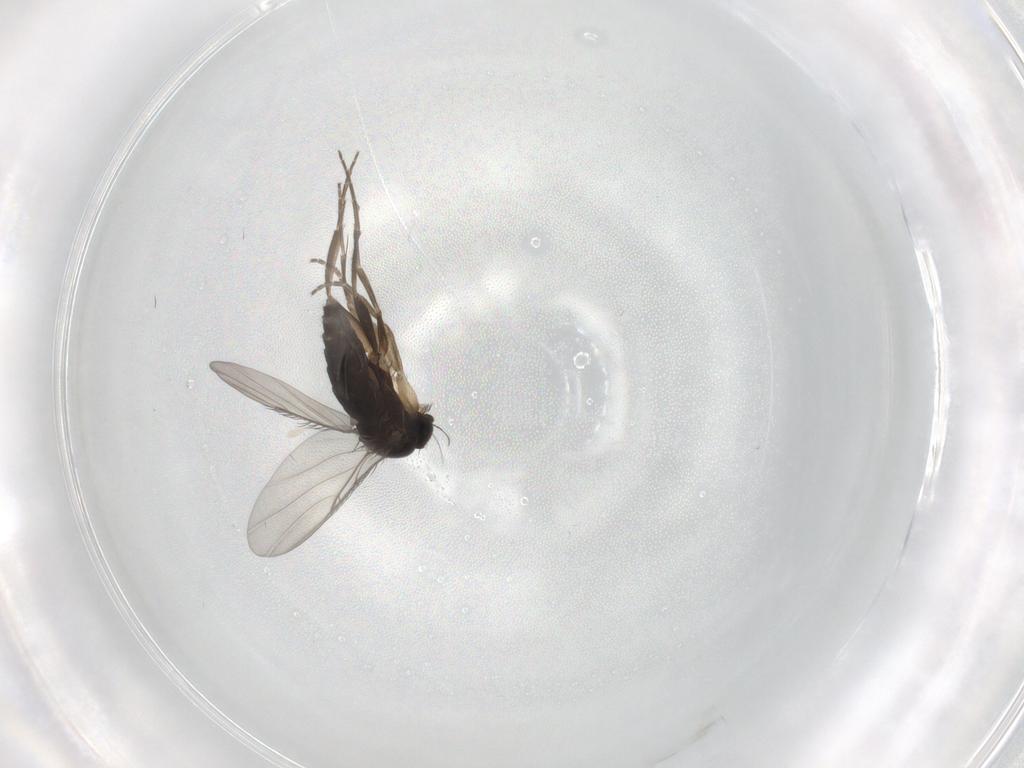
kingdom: Animalia
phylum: Arthropoda
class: Insecta
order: Diptera
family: Phoridae
